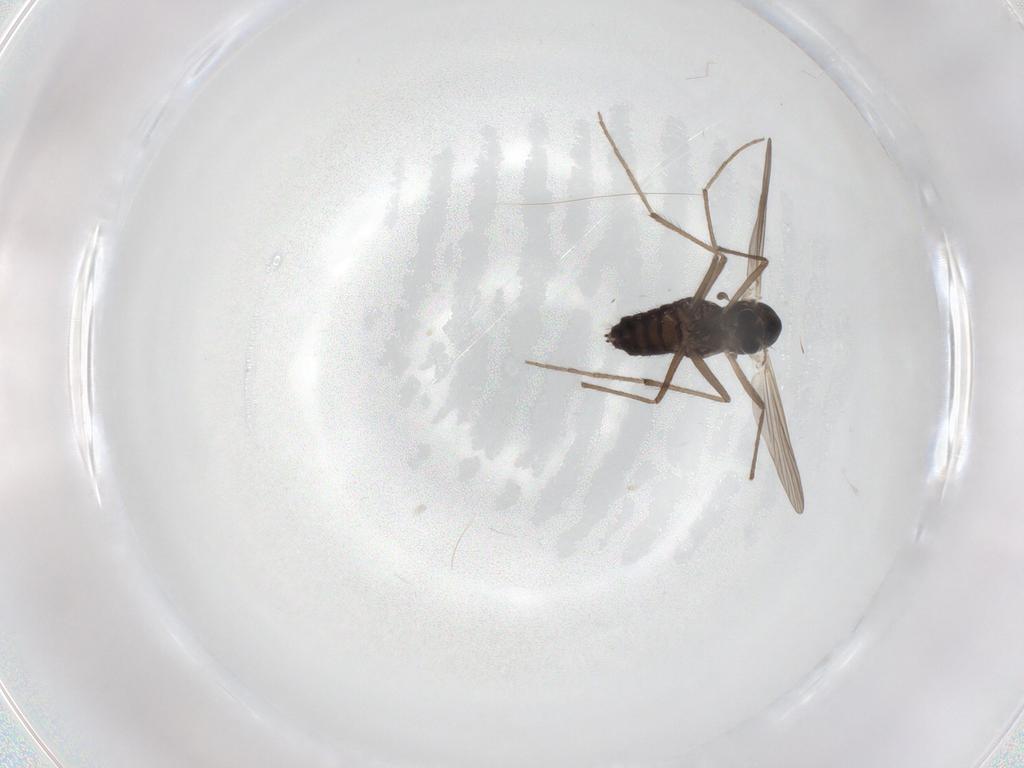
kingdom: Animalia
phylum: Arthropoda
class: Insecta
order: Diptera
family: Chironomidae
